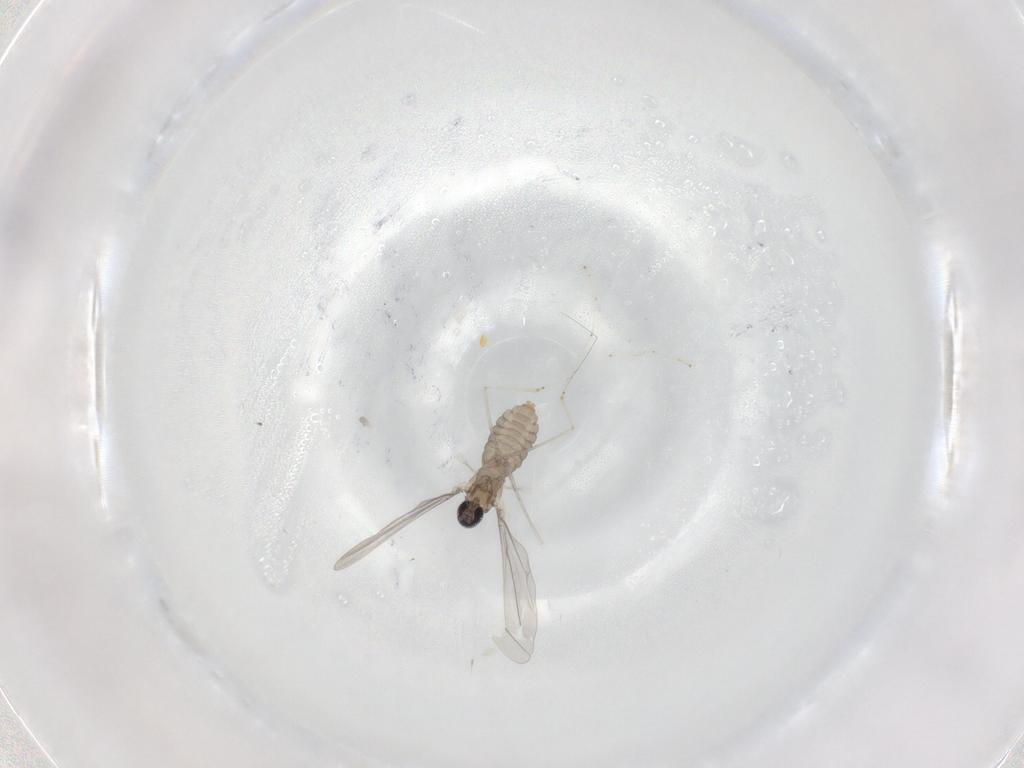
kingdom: Animalia
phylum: Arthropoda
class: Insecta
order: Diptera
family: Cecidomyiidae
